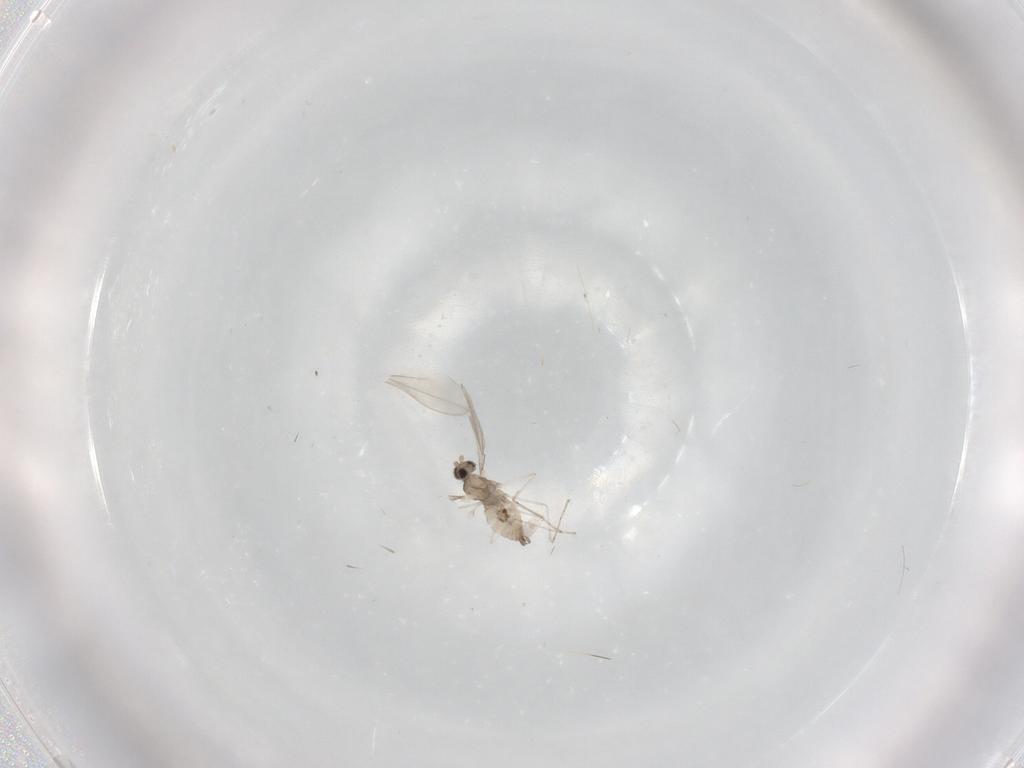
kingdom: Animalia
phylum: Arthropoda
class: Insecta
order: Diptera
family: Cecidomyiidae
